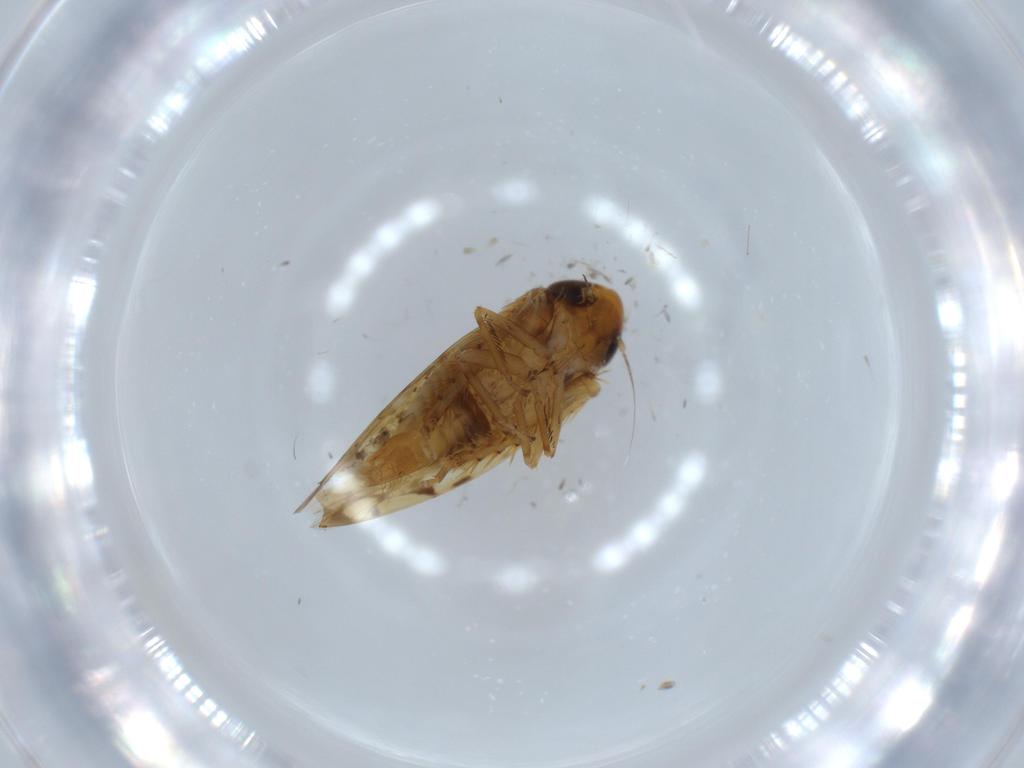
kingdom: Animalia
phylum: Arthropoda
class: Insecta
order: Hemiptera
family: Cicadellidae
